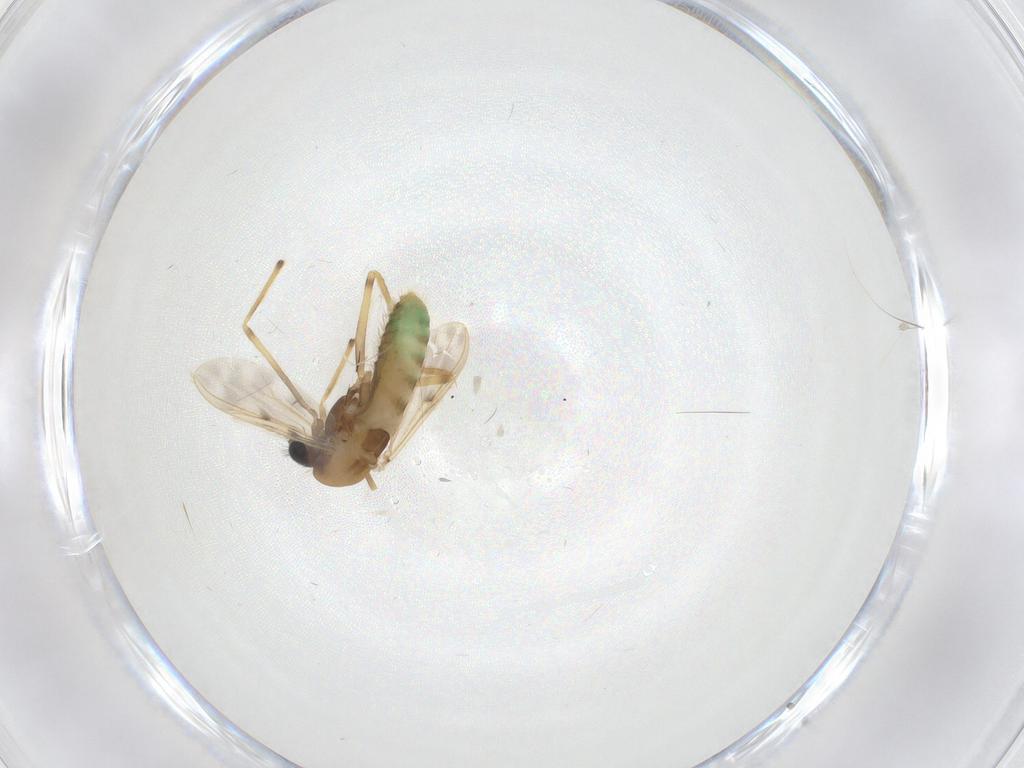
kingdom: Animalia
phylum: Arthropoda
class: Insecta
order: Diptera
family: Chironomidae
